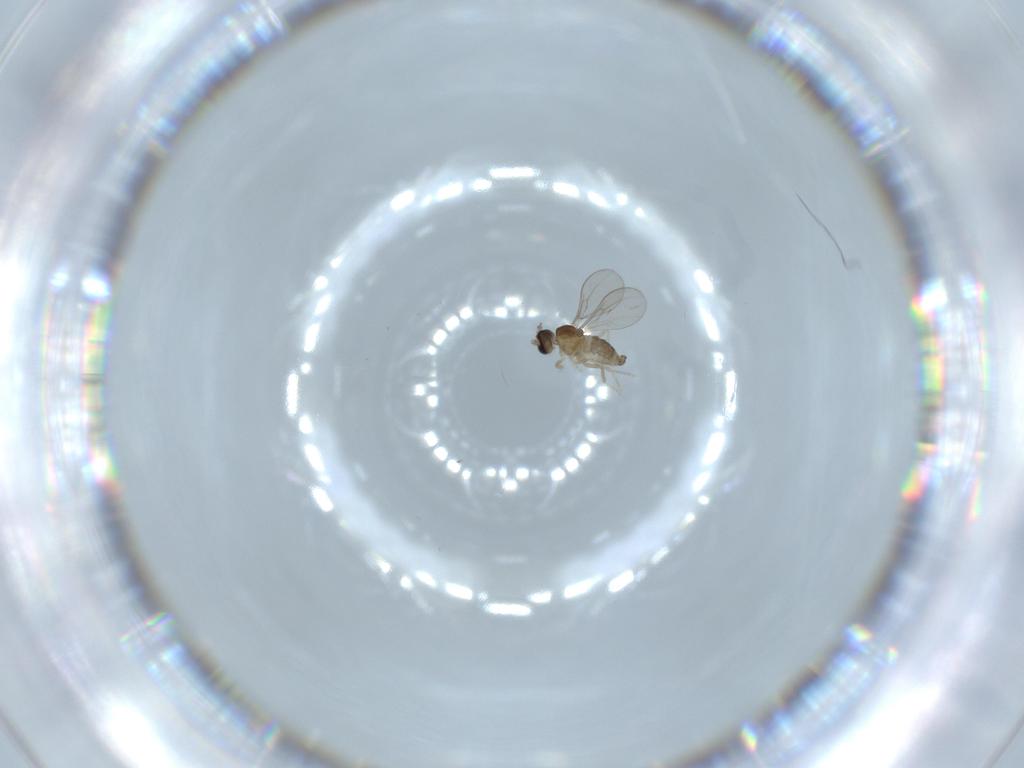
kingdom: Animalia
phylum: Arthropoda
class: Insecta
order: Diptera
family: Cecidomyiidae
